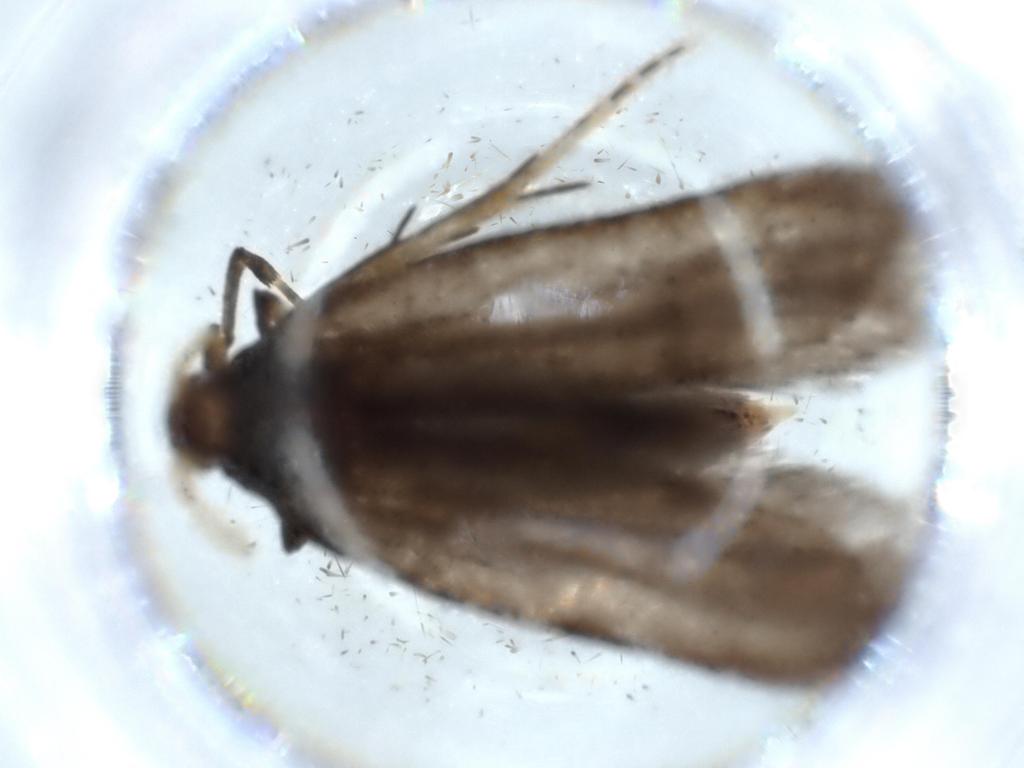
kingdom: Animalia
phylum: Arthropoda
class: Insecta
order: Lepidoptera
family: Lecithoceridae
